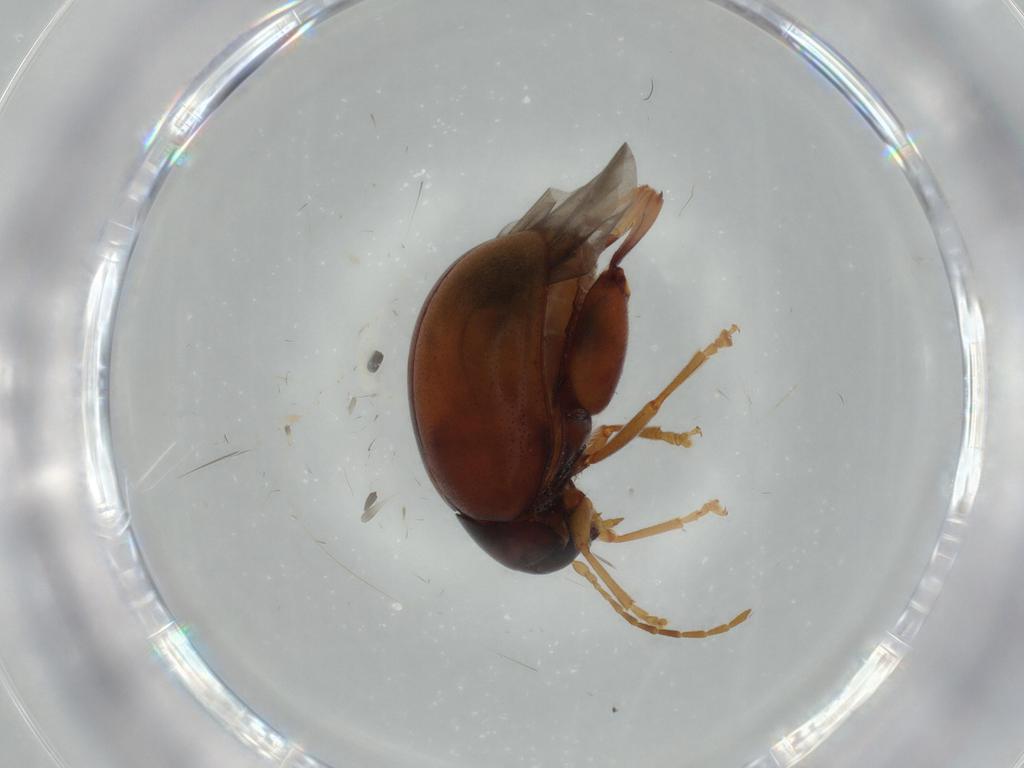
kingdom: Animalia
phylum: Arthropoda
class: Insecta
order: Coleoptera
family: Chrysomelidae
